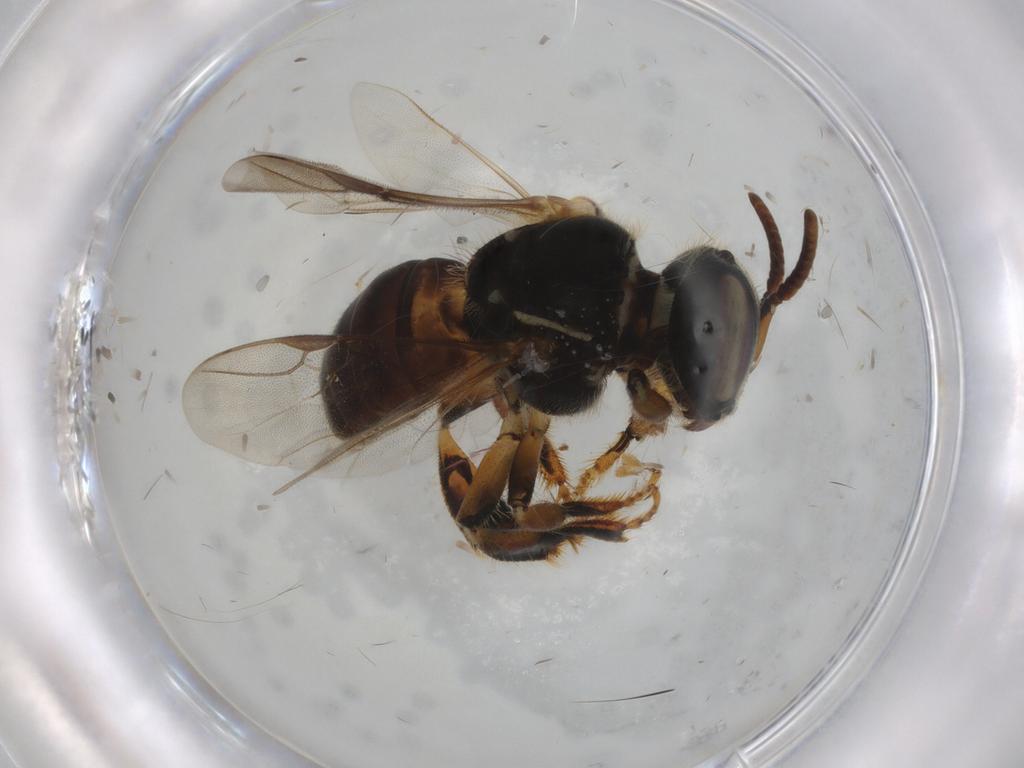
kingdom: Animalia
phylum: Arthropoda
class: Insecta
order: Hymenoptera
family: Apidae
